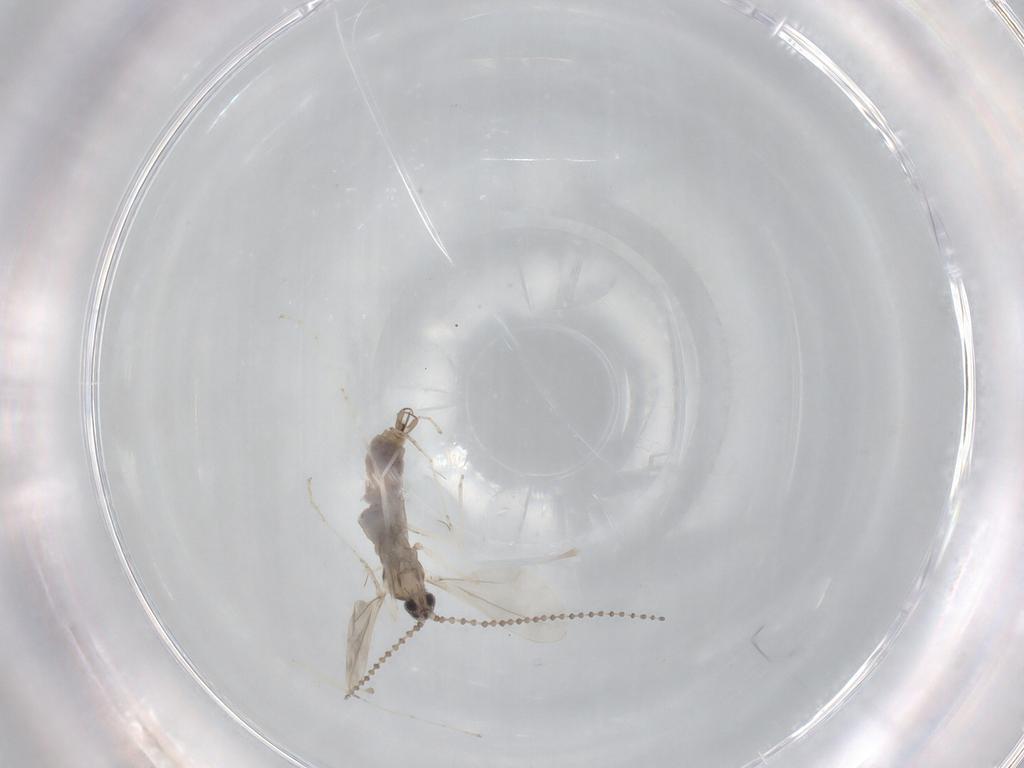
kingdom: Animalia
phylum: Arthropoda
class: Insecta
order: Diptera
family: Cecidomyiidae
